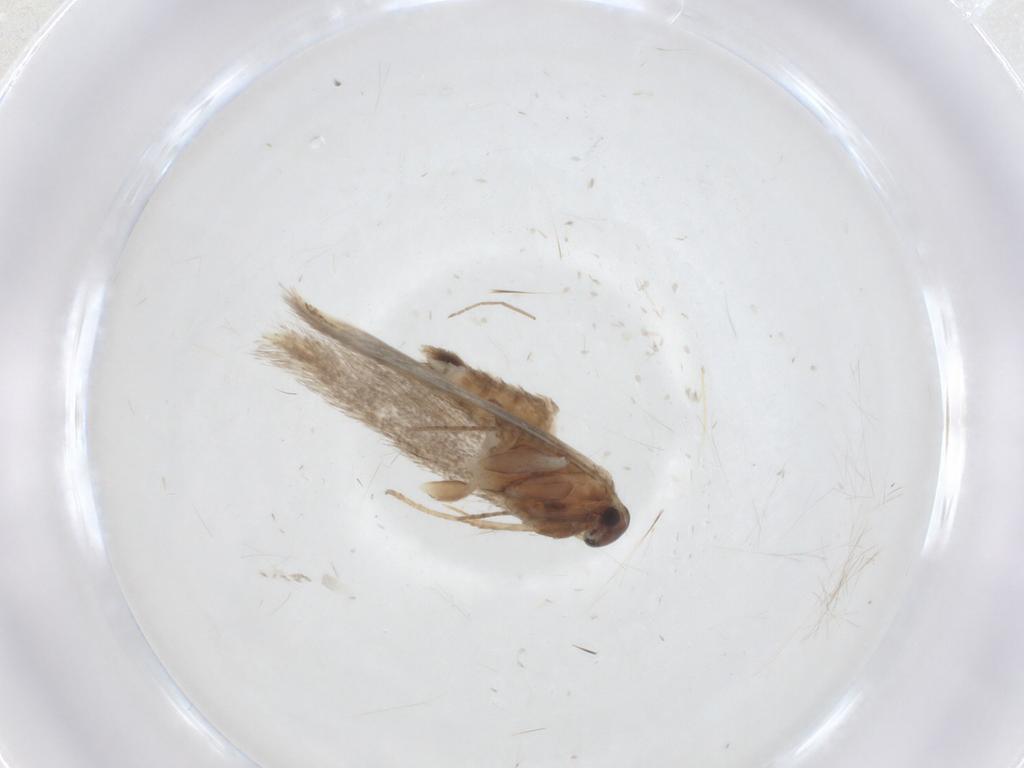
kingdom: Animalia
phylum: Arthropoda
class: Insecta
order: Lepidoptera
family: Elachistidae
